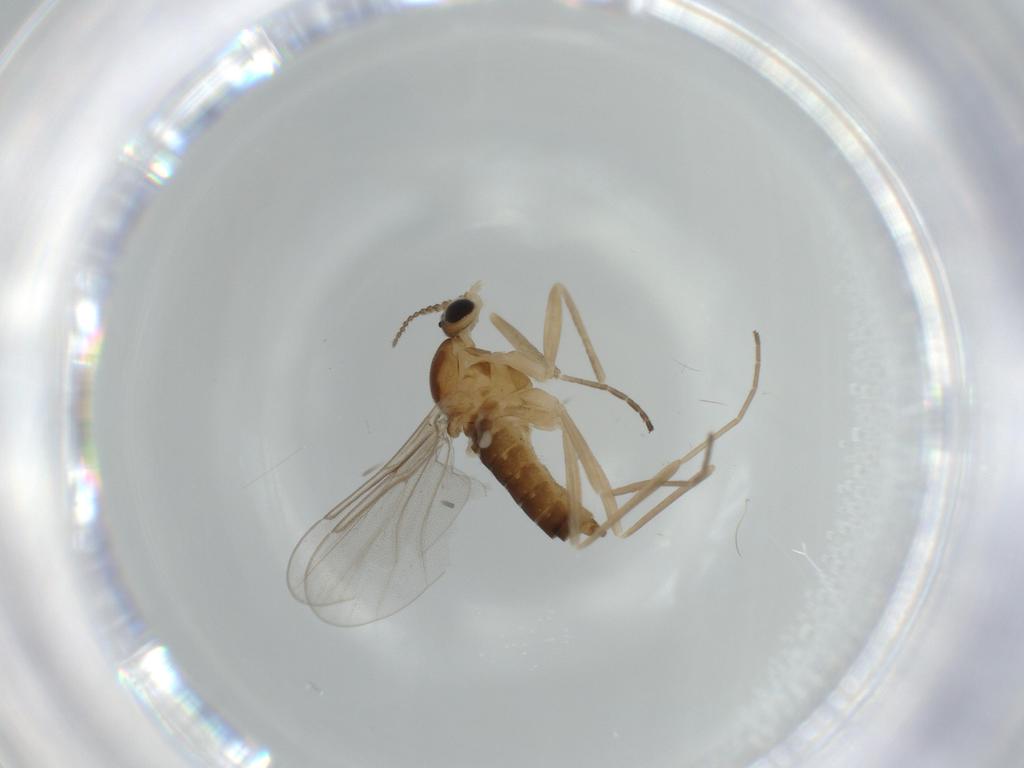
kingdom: Animalia
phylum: Arthropoda
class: Insecta
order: Diptera
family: Cecidomyiidae
